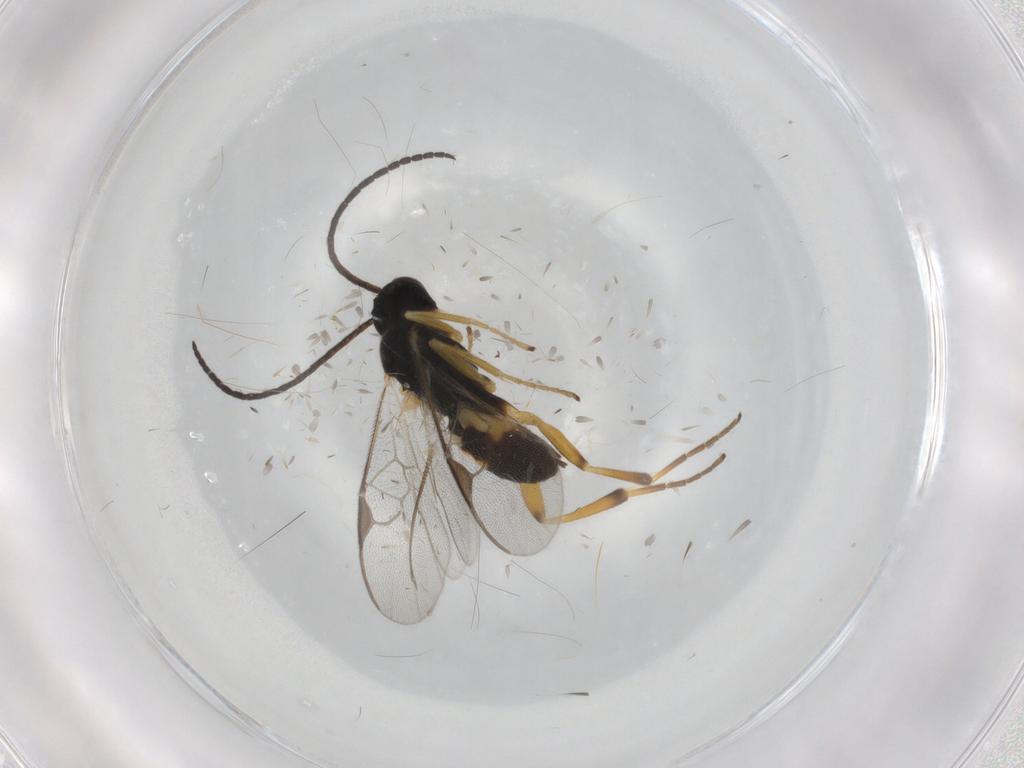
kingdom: Animalia
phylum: Arthropoda
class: Insecta
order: Hymenoptera
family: Braconidae
